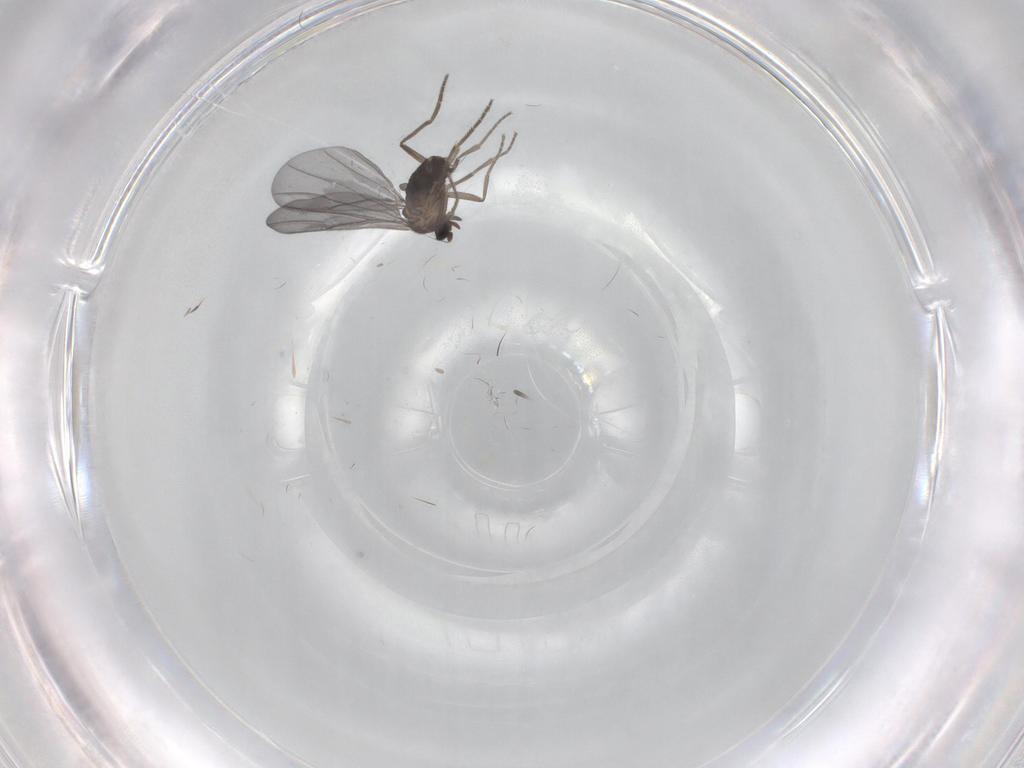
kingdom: Animalia
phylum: Arthropoda
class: Insecta
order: Diptera
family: Phoridae
